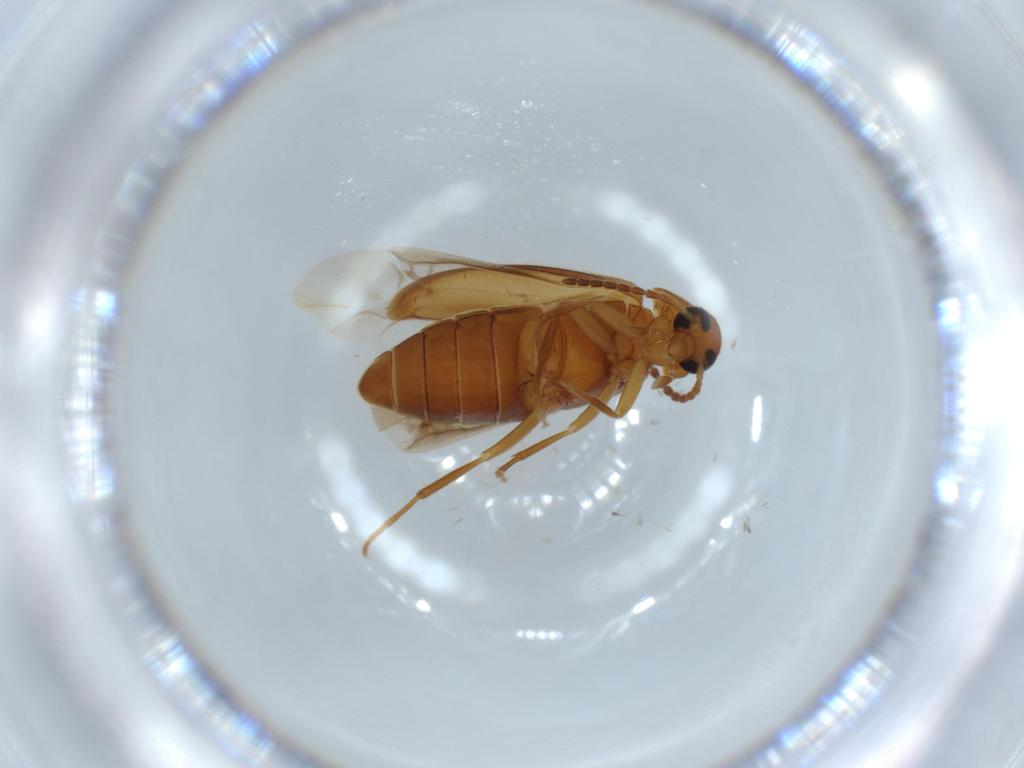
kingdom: Animalia
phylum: Arthropoda
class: Insecta
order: Coleoptera
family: Scraptiidae
